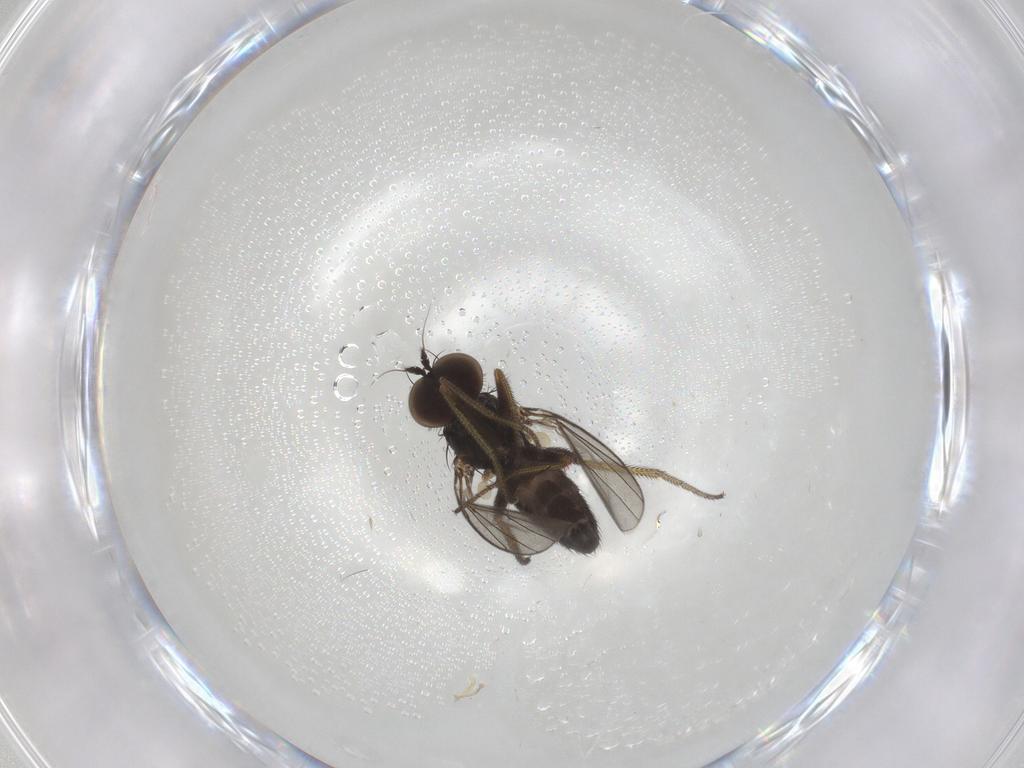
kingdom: Animalia
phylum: Arthropoda
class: Insecta
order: Diptera
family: Dolichopodidae
